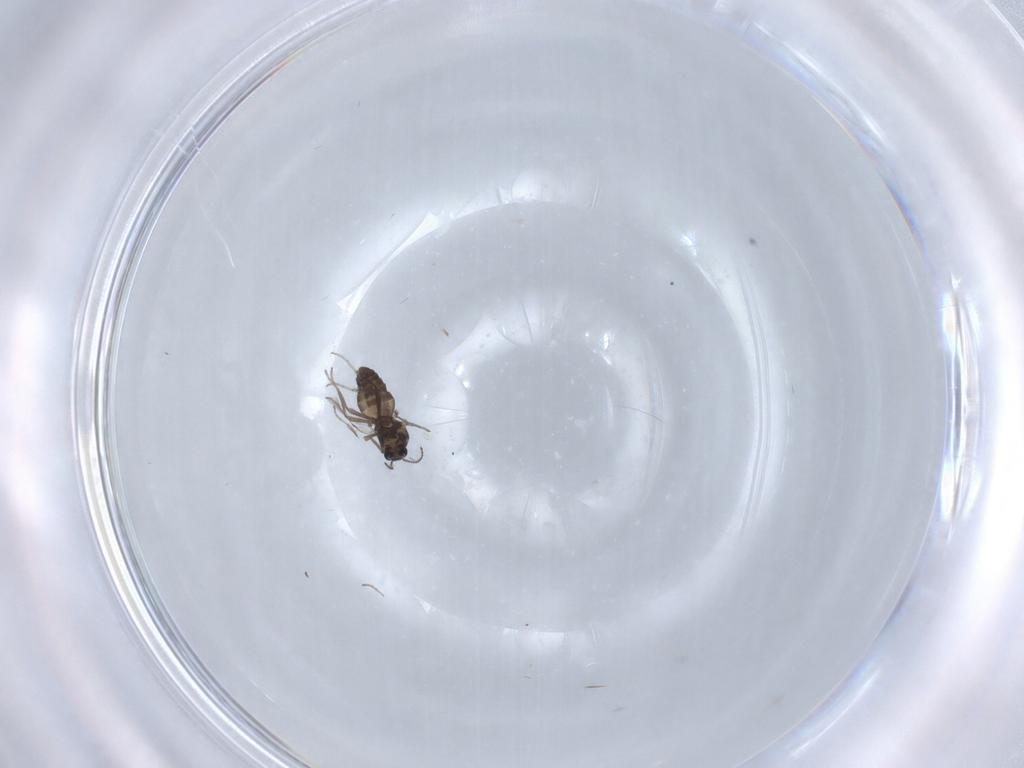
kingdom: Animalia
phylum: Arthropoda
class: Insecta
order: Diptera
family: Ceratopogonidae
